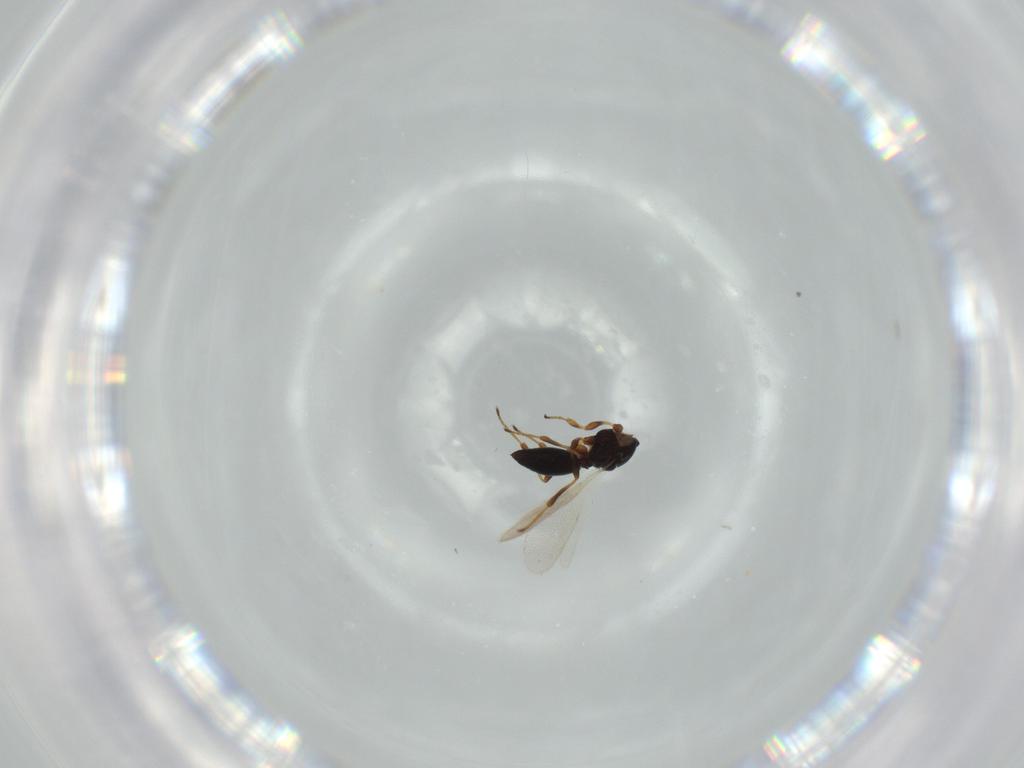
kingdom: Animalia
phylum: Arthropoda
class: Insecta
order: Hymenoptera
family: Platygastridae
